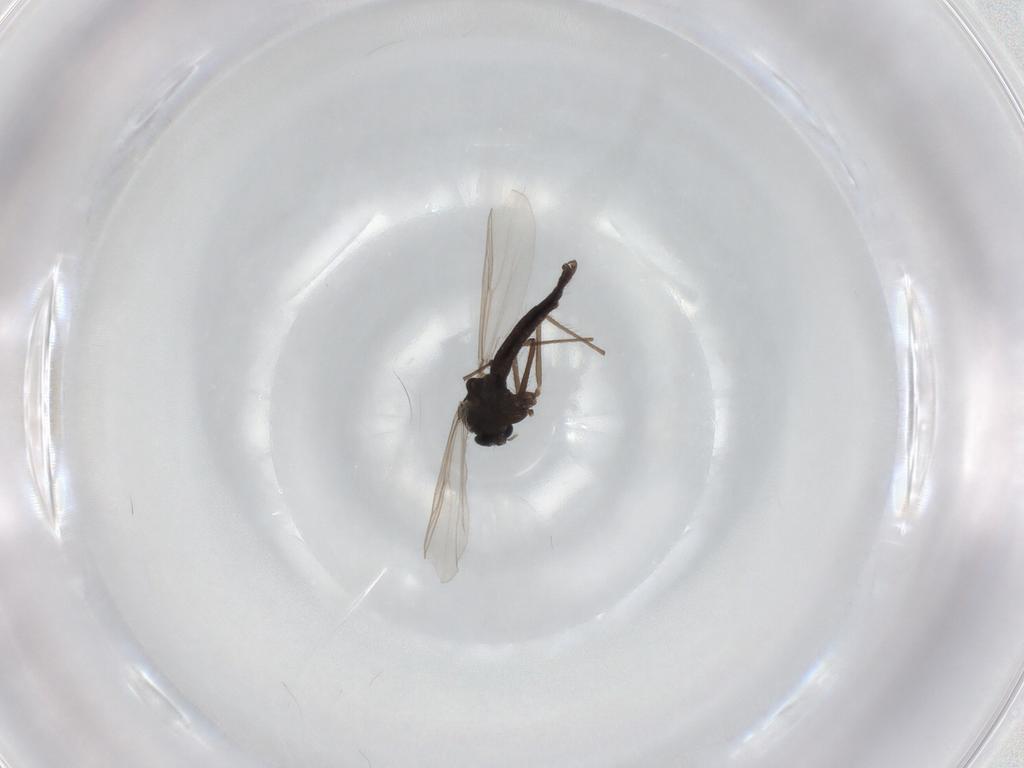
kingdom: Animalia
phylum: Arthropoda
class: Insecta
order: Diptera
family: Chironomidae
